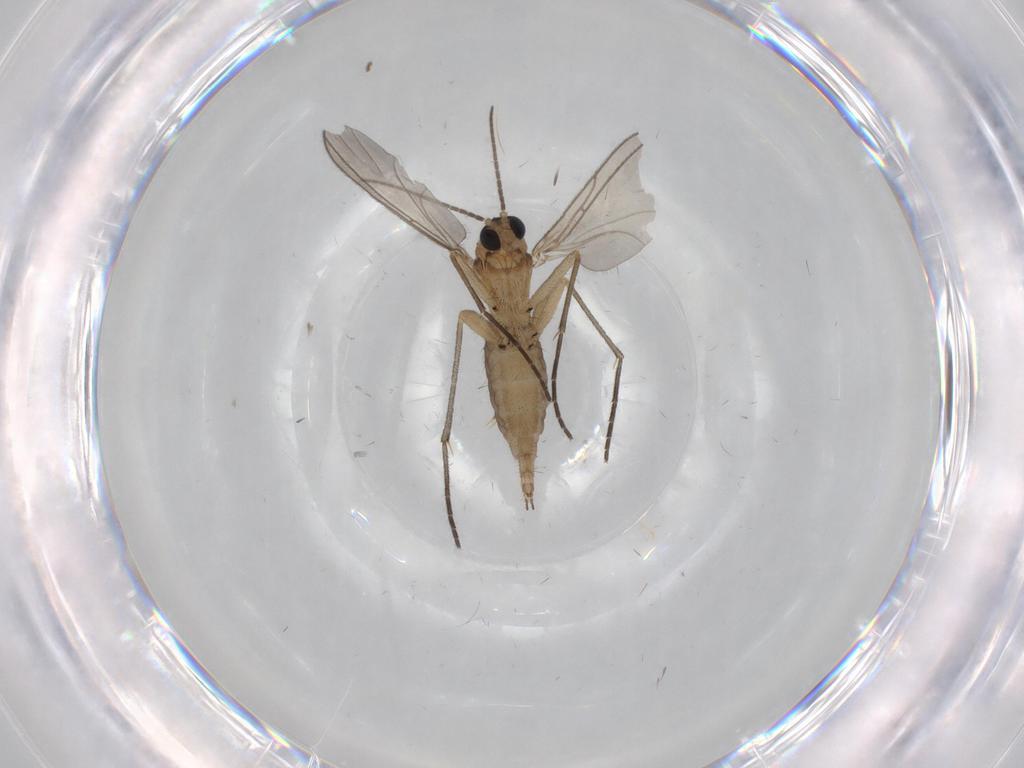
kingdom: Animalia
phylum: Arthropoda
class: Insecta
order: Diptera
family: Sciaridae
